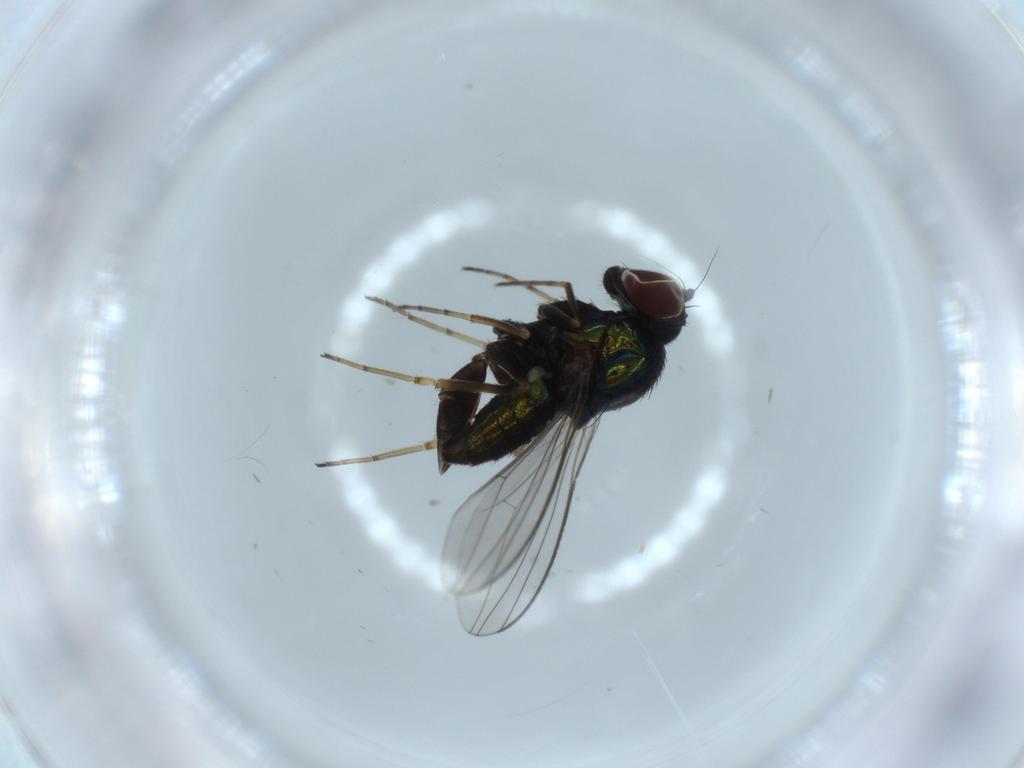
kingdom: Animalia
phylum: Arthropoda
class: Insecta
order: Diptera
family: Dolichopodidae
